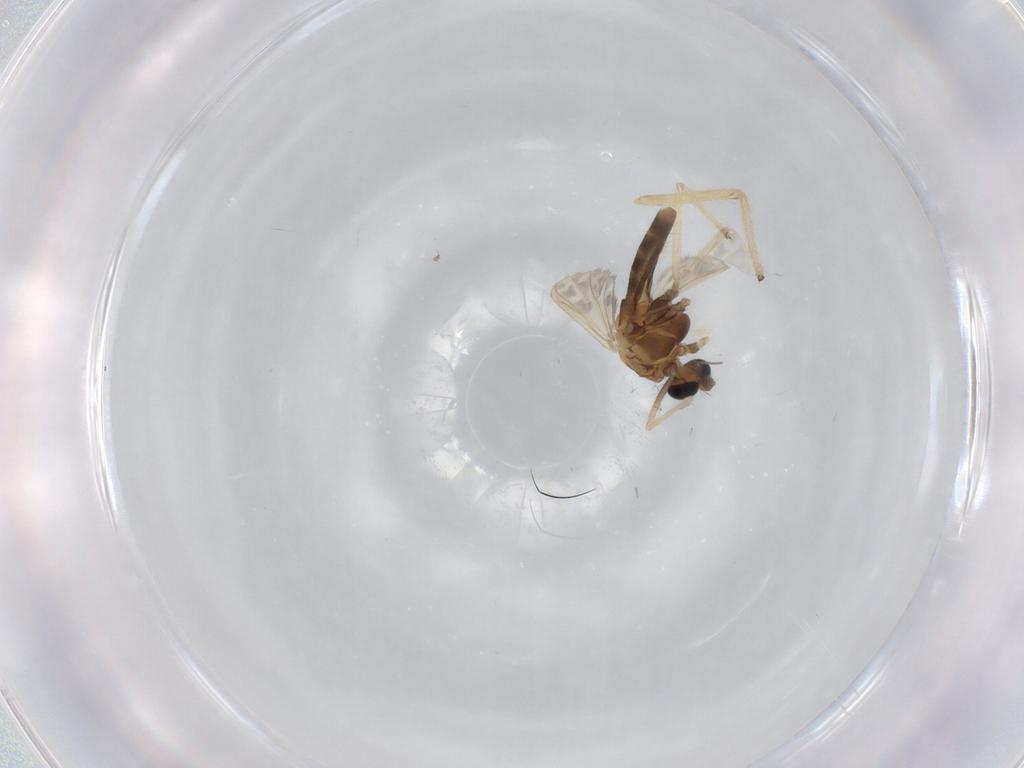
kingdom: Animalia
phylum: Arthropoda
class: Insecta
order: Diptera
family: Chironomidae
